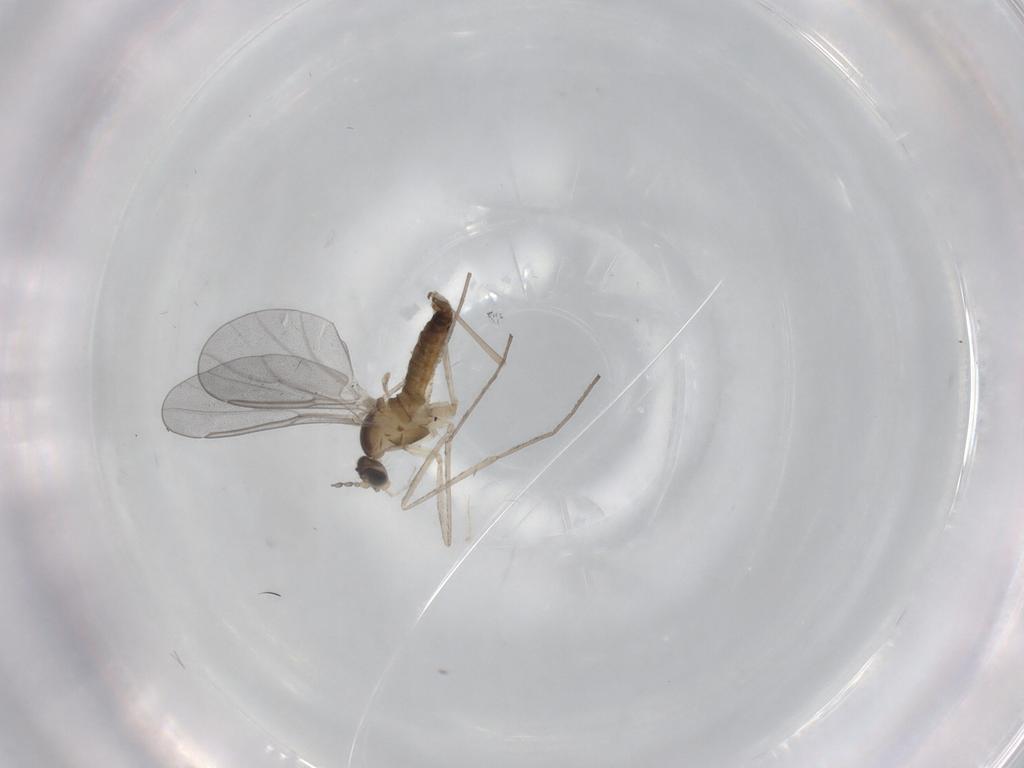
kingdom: Animalia
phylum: Arthropoda
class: Insecta
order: Diptera
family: Cecidomyiidae
